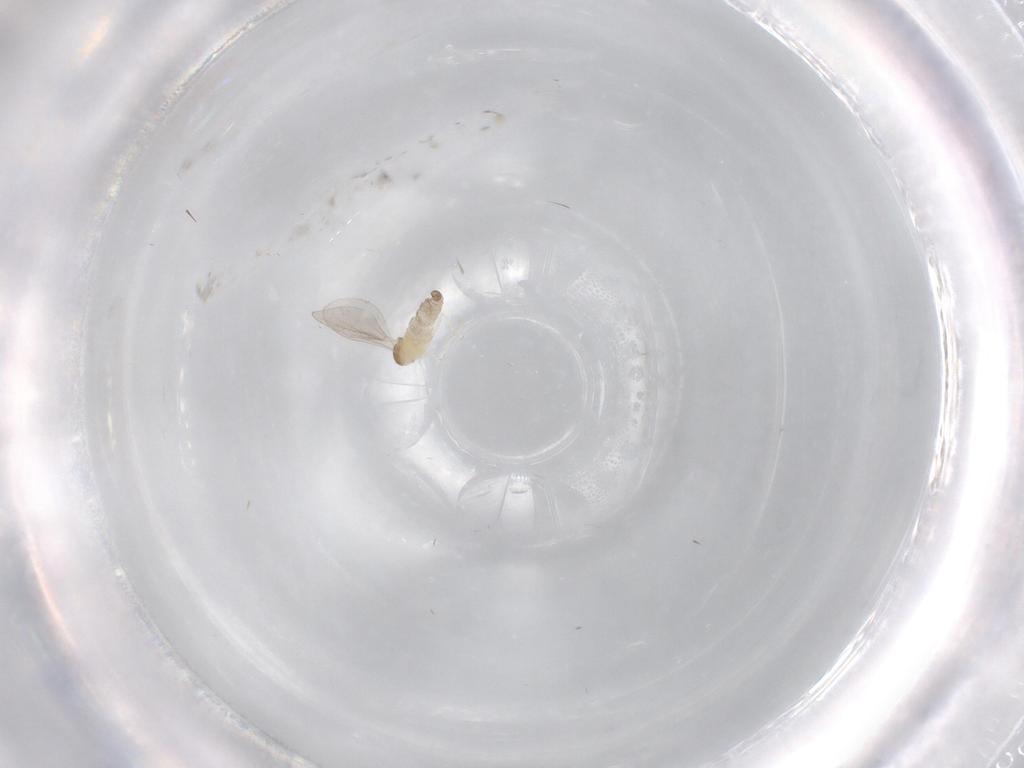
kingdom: Animalia
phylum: Arthropoda
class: Insecta
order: Diptera
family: Cecidomyiidae
